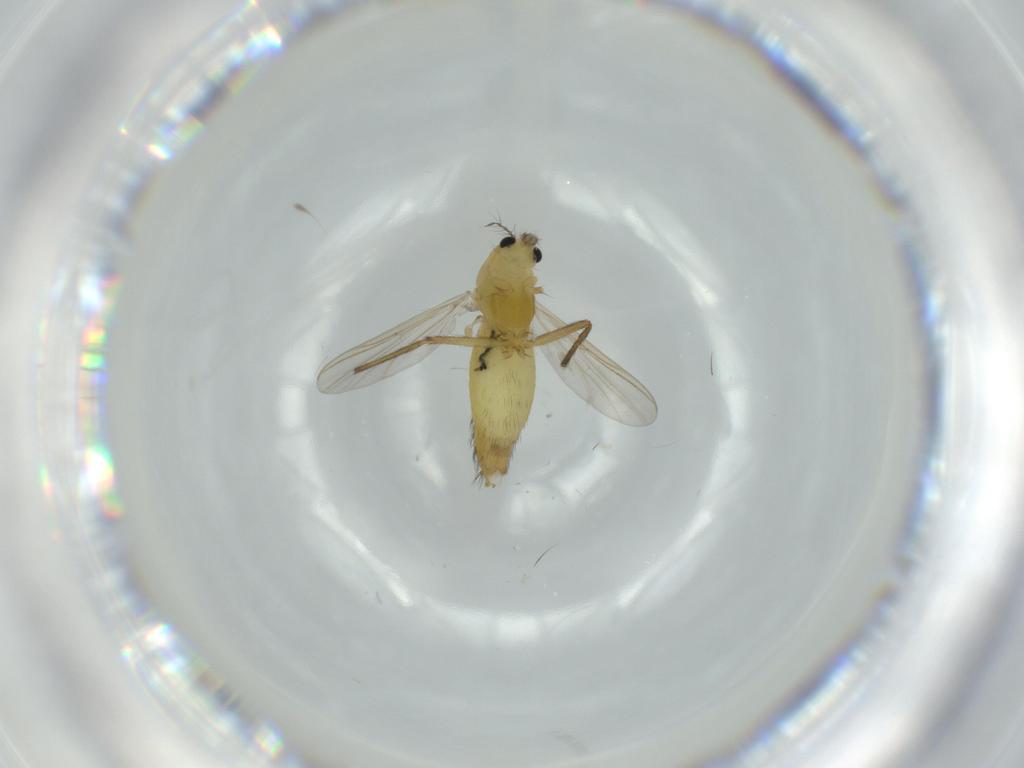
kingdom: Animalia
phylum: Arthropoda
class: Insecta
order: Diptera
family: Chironomidae
